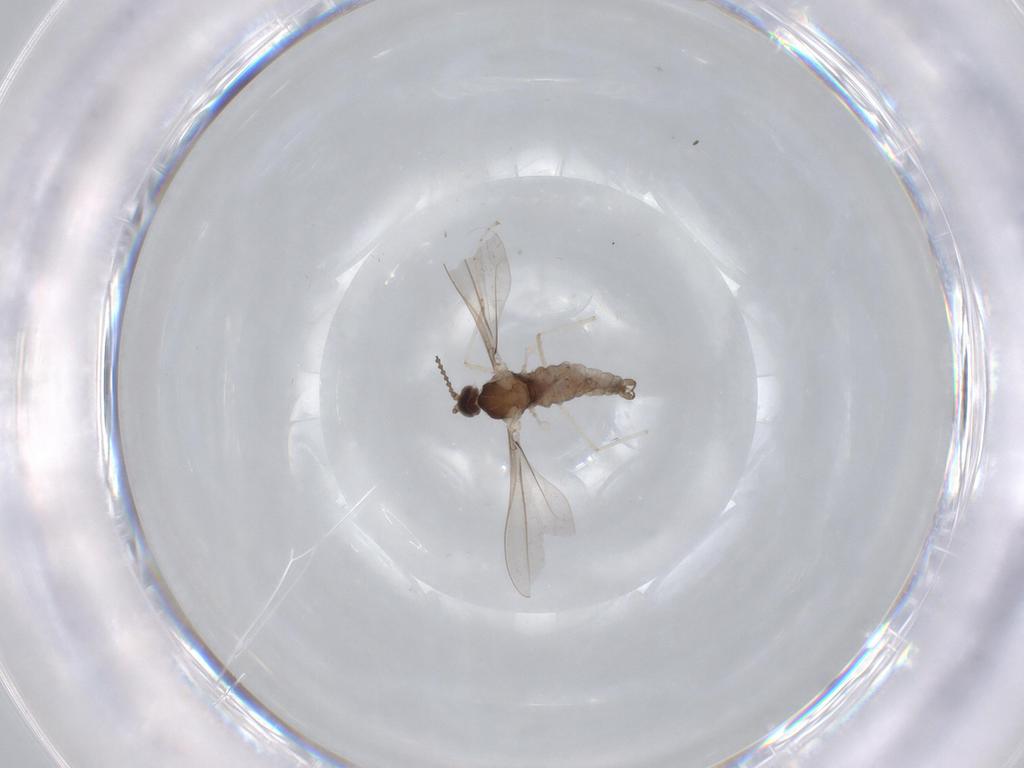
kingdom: Animalia
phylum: Arthropoda
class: Insecta
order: Diptera
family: Cecidomyiidae
